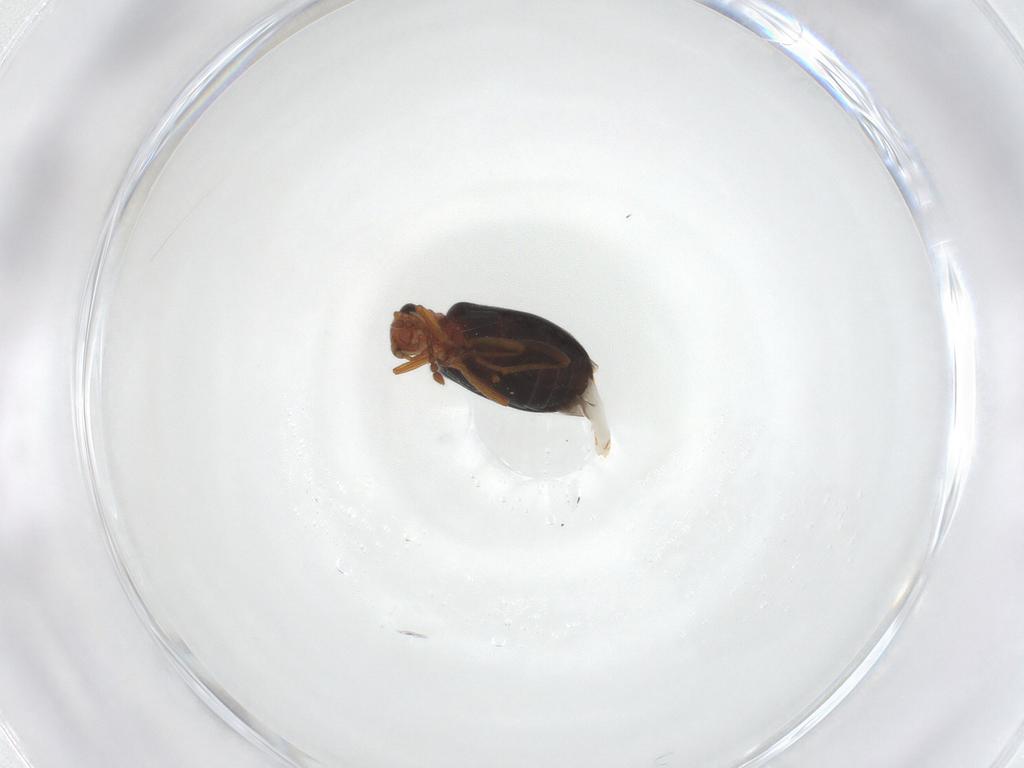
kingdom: Animalia
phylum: Arthropoda
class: Insecta
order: Coleoptera
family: Aderidae
